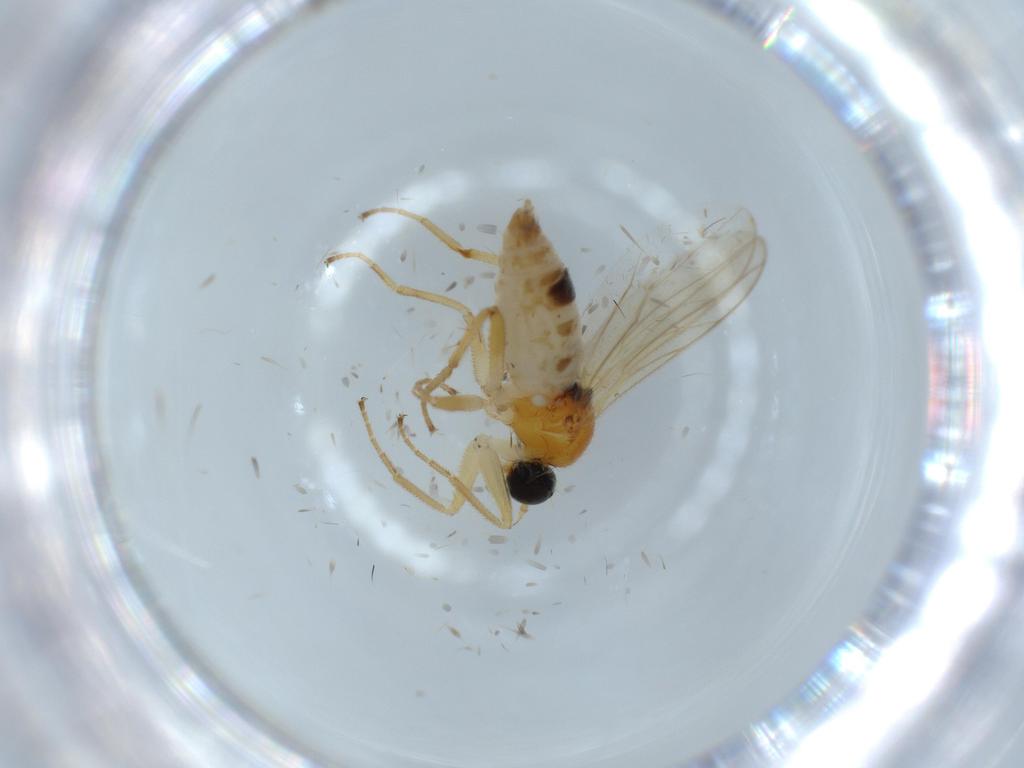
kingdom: Animalia
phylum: Arthropoda
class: Insecta
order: Diptera
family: Hybotidae
